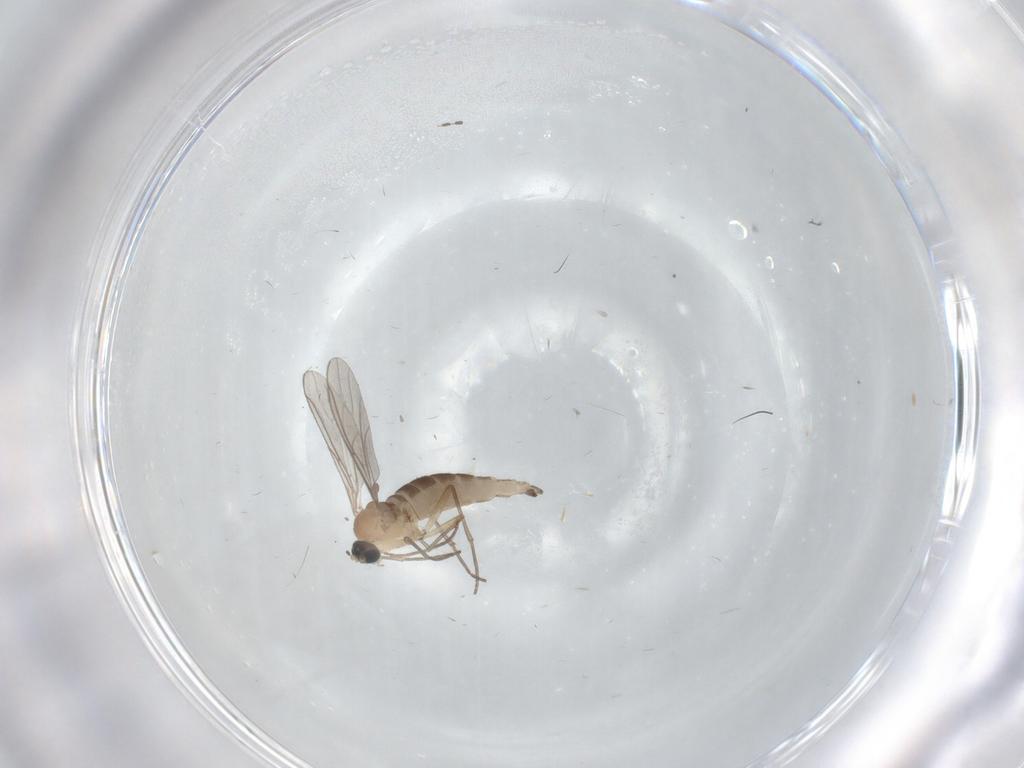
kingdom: Animalia
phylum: Arthropoda
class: Insecta
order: Diptera
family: Sciaridae
